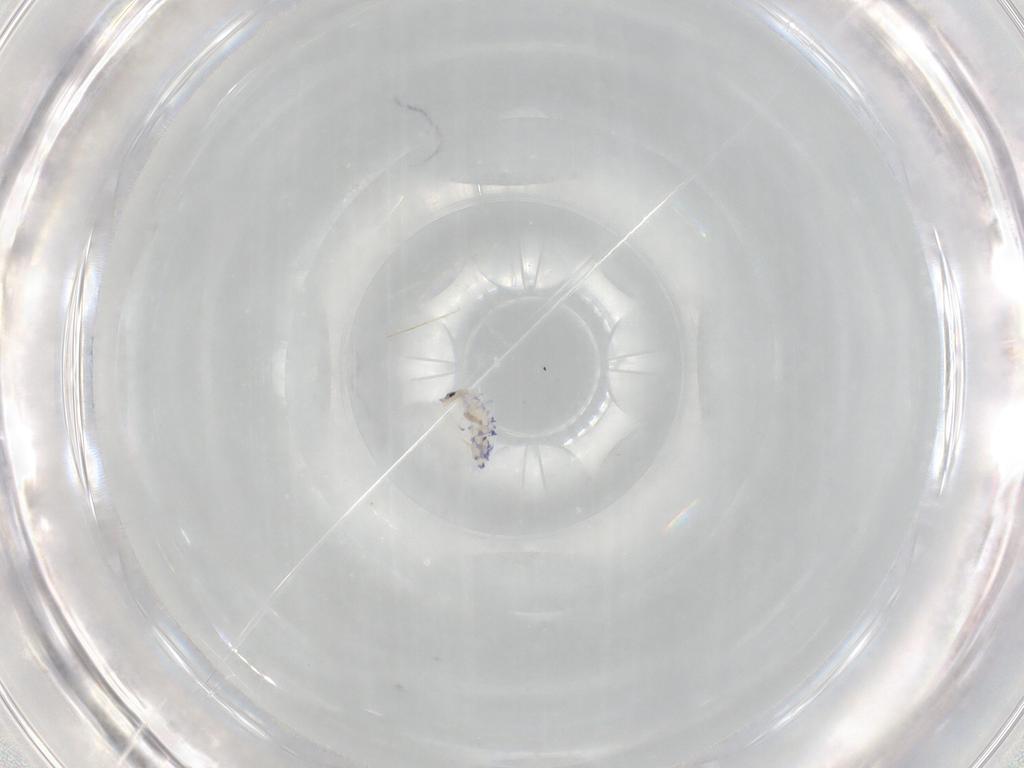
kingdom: Animalia
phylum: Arthropoda
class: Collembola
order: Entomobryomorpha
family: Entomobryidae
